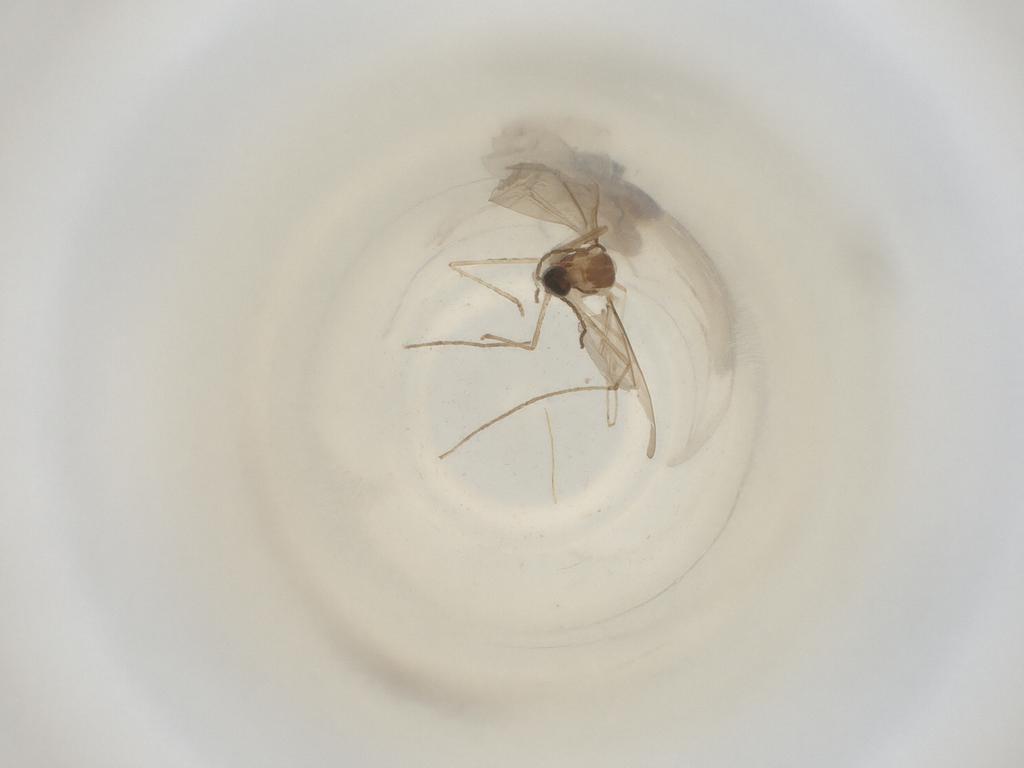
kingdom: Animalia
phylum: Arthropoda
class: Insecta
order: Diptera
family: Cecidomyiidae
